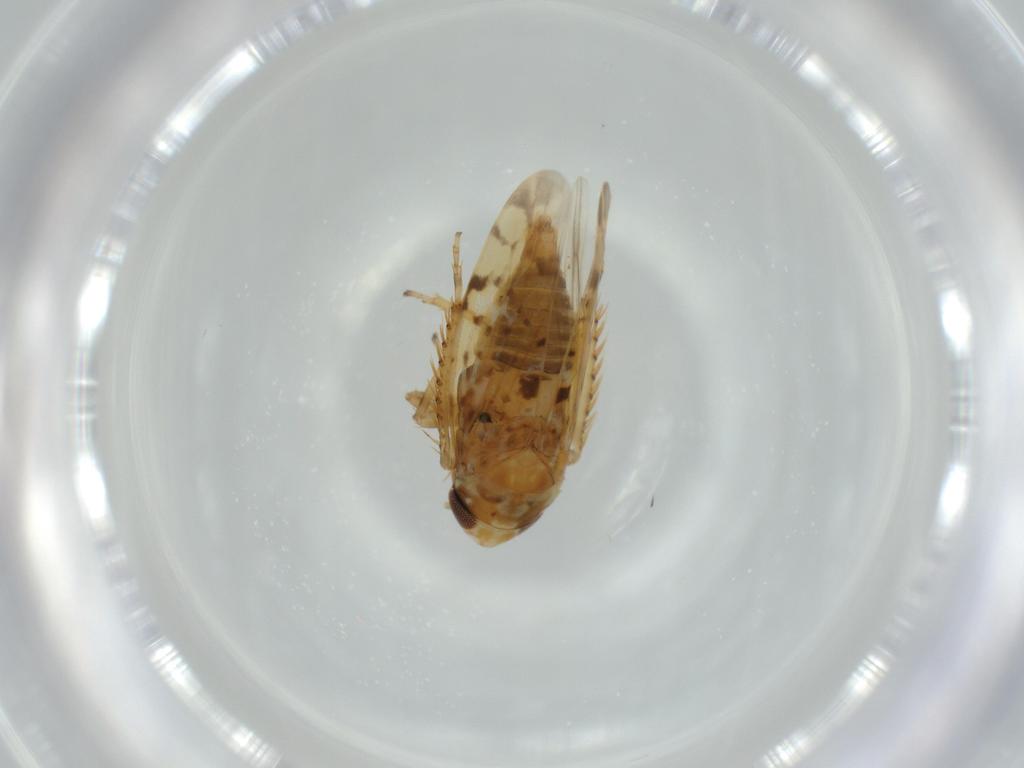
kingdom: Animalia
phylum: Arthropoda
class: Insecta
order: Hemiptera
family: Cicadellidae
